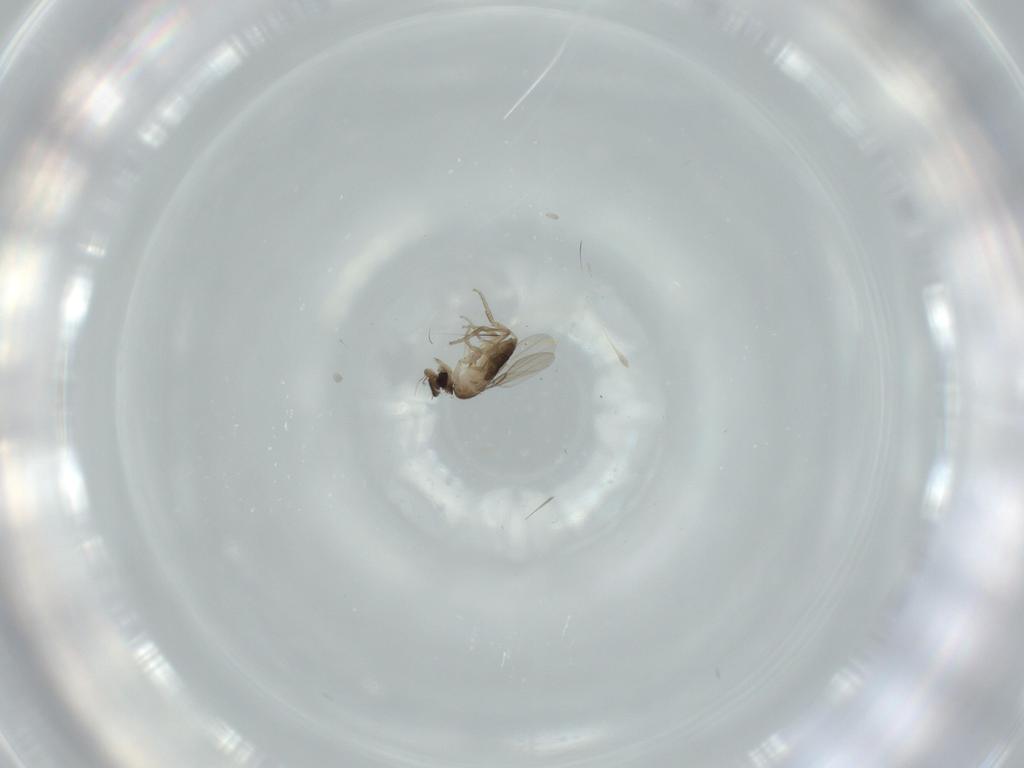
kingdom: Animalia
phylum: Arthropoda
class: Insecta
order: Diptera
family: Phoridae
